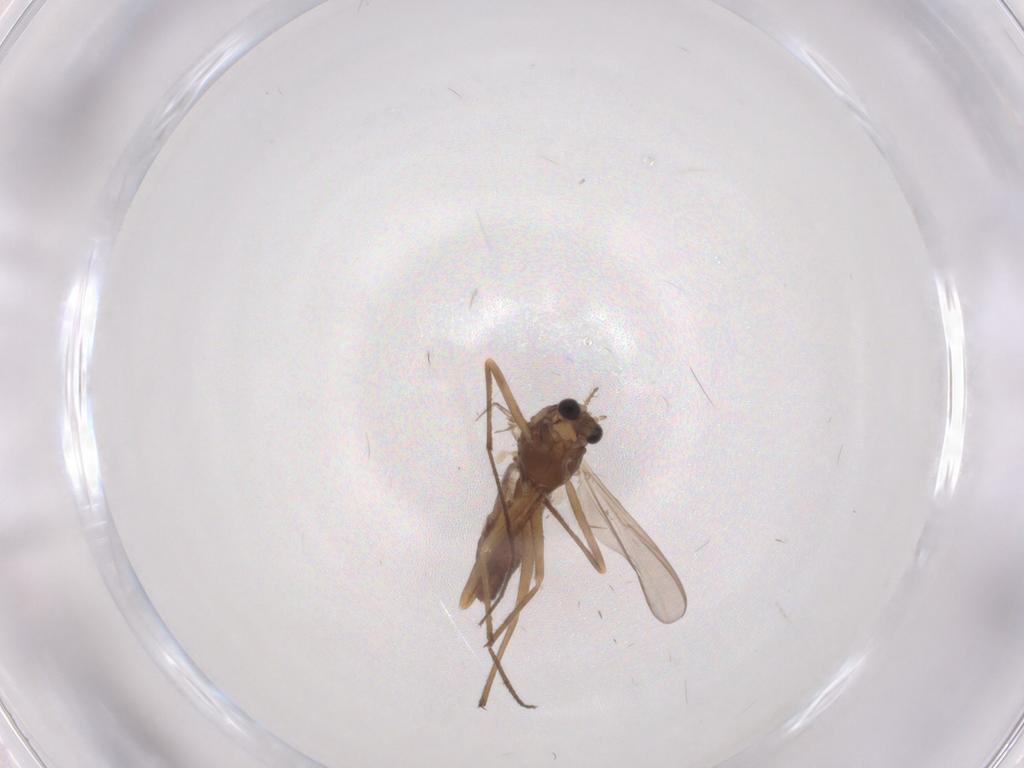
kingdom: Animalia
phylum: Arthropoda
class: Insecta
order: Diptera
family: Chironomidae
